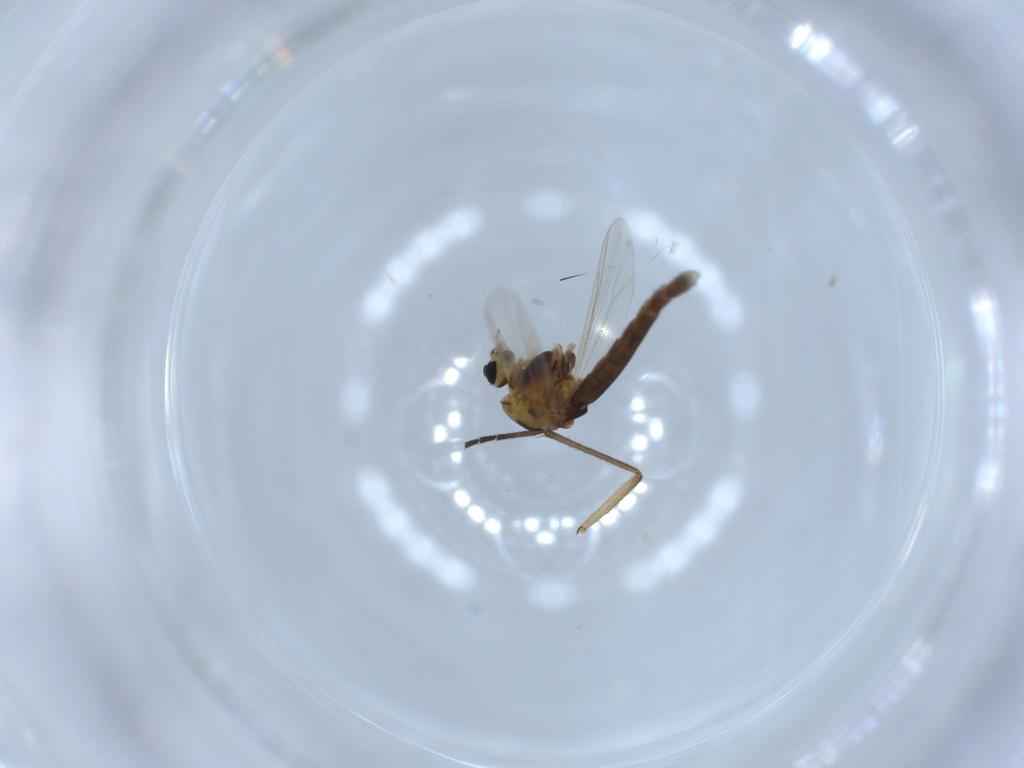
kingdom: Animalia
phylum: Arthropoda
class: Insecta
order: Diptera
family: Chironomidae
